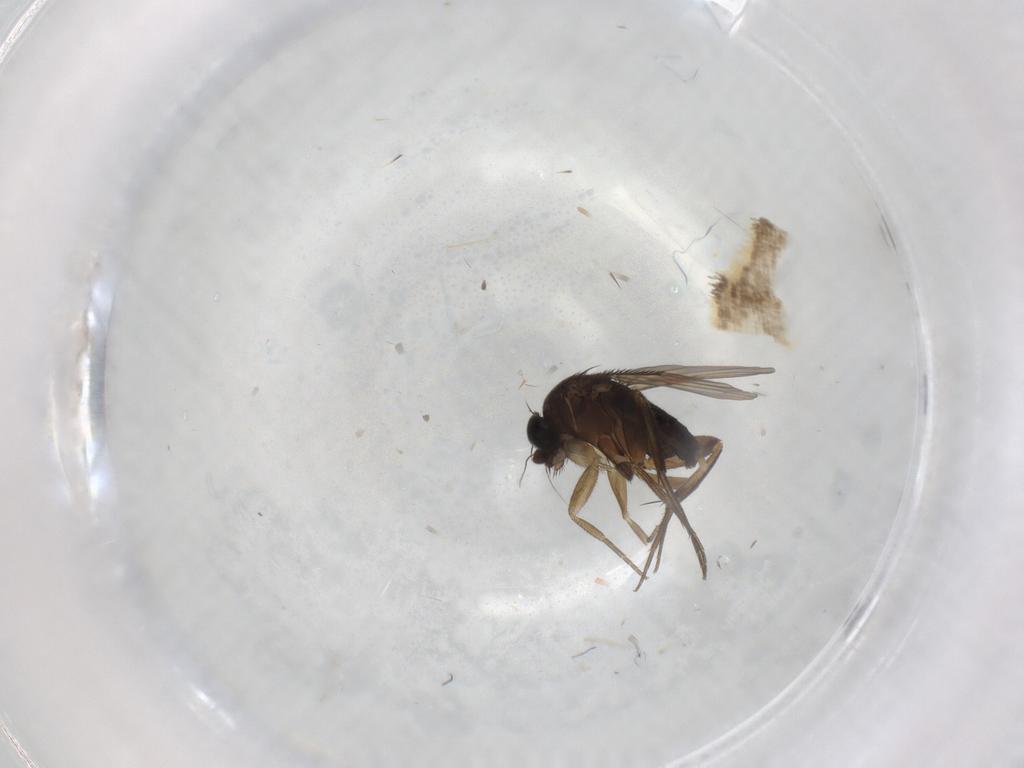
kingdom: Animalia
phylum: Arthropoda
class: Insecta
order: Diptera
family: Phoridae
